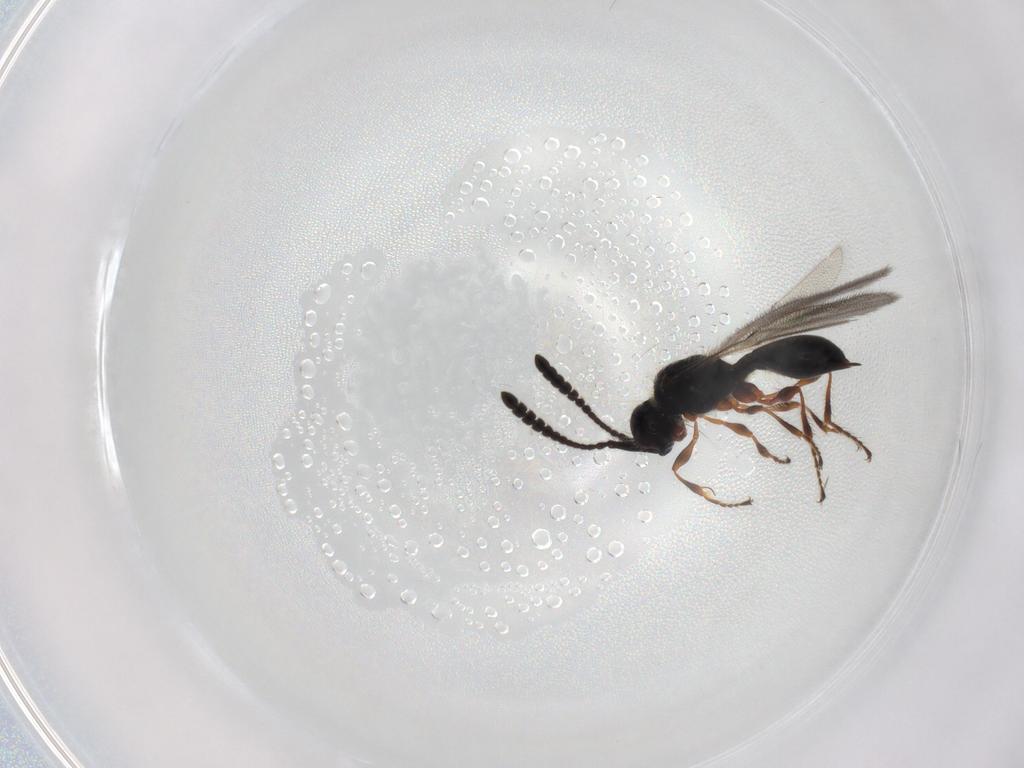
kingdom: Animalia
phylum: Arthropoda
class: Insecta
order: Hymenoptera
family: Diapriidae
